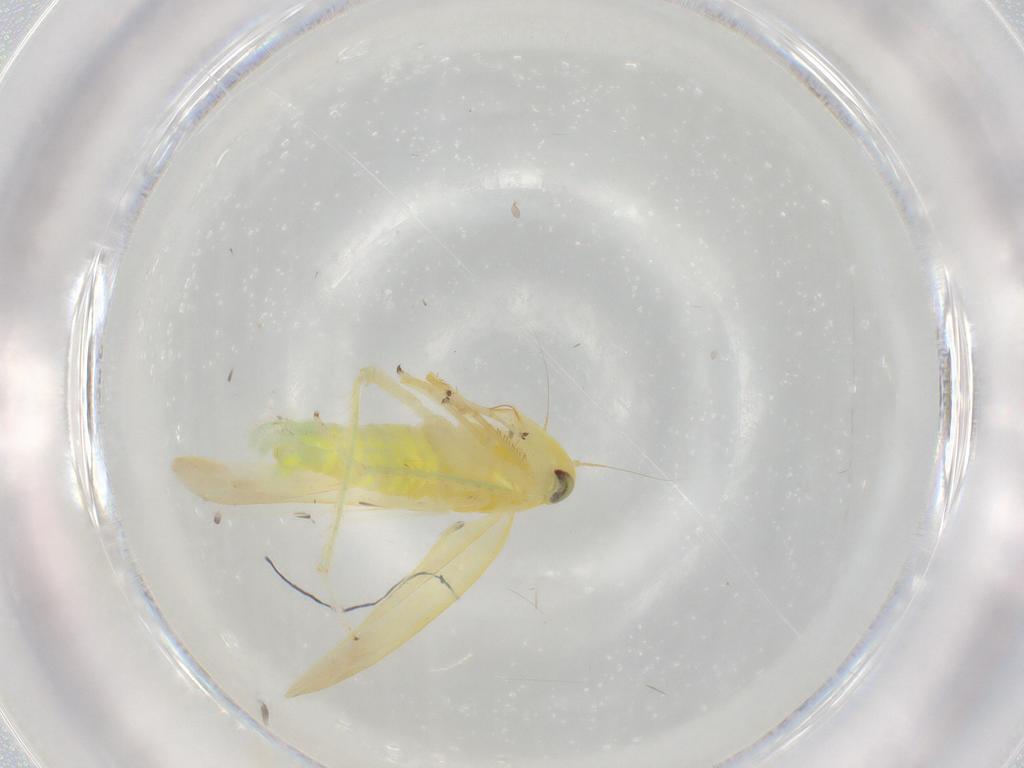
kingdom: Animalia
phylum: Arthropoda
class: Insecta
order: Hemiptera
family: Cicadellidae
